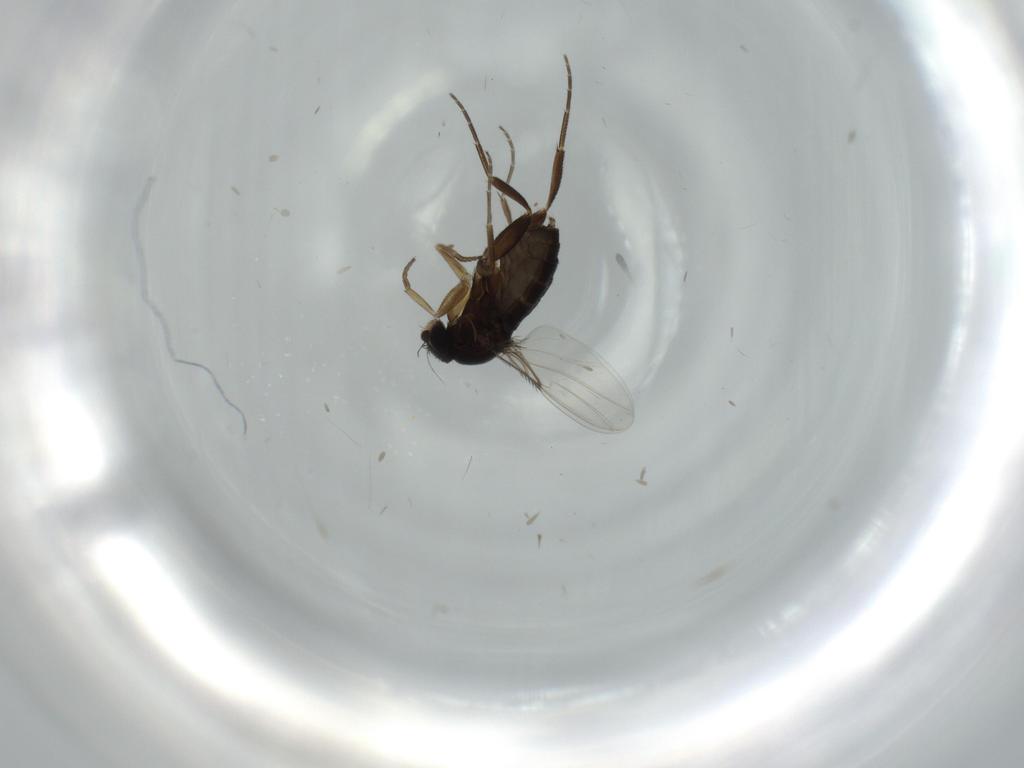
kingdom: Animalia
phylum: Arthropoda
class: Insecta
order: Diptera
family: Phoridae
